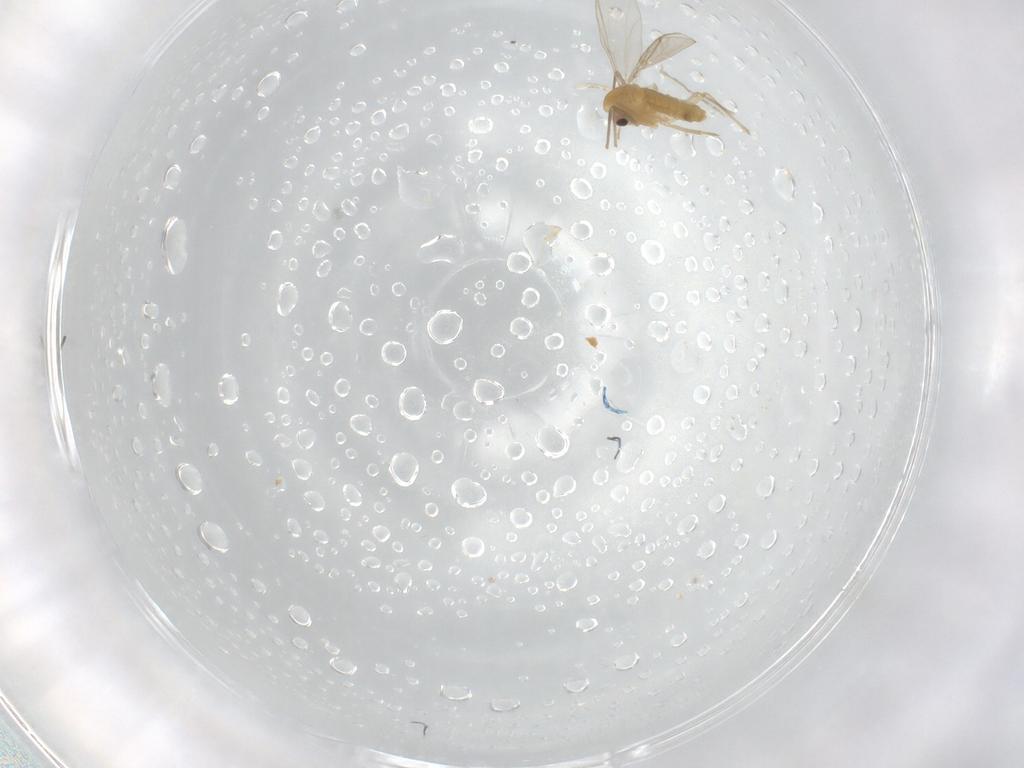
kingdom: Animalia
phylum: Arthropoda
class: Insecta
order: Diptera
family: Chironomidae
